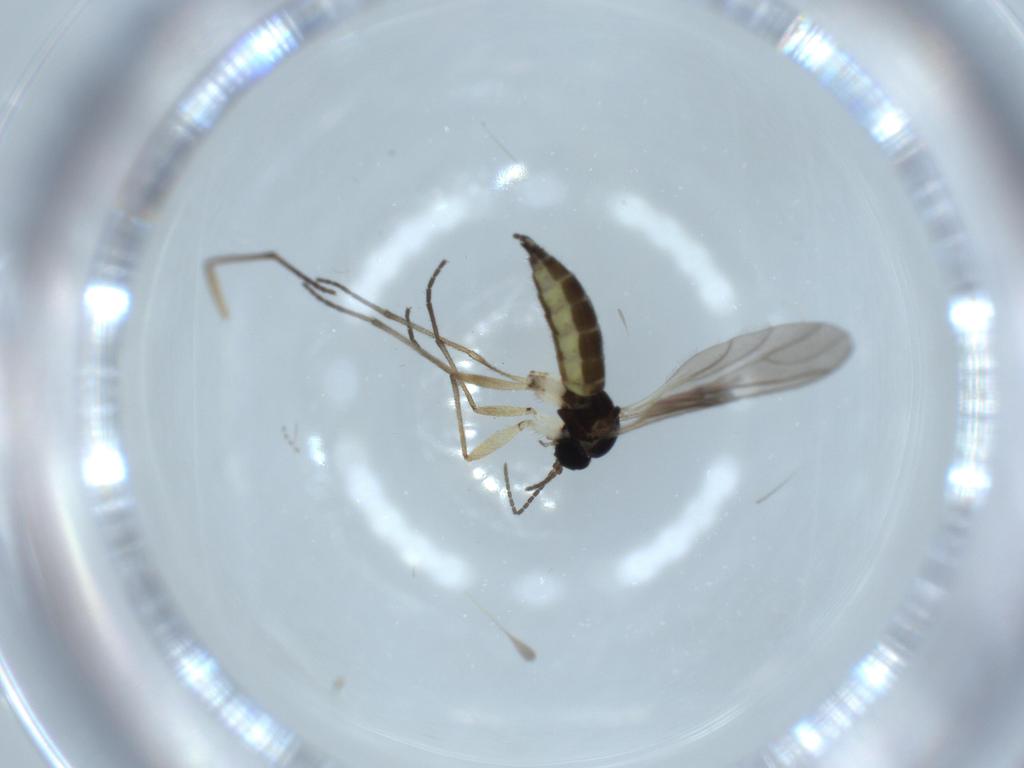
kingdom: Animalia
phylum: Arthropoda
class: Insecta
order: Diptera
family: Sciaridae
